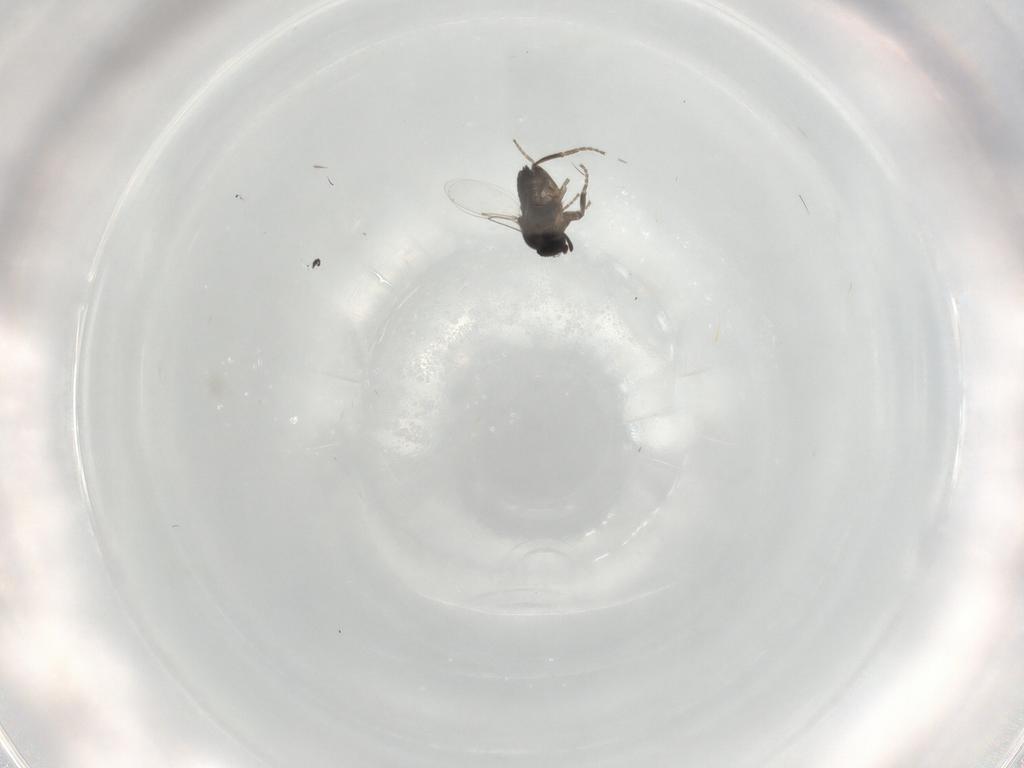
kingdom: Animalia
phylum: Arthropoda
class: Insecta
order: Diptera
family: Phoridae
